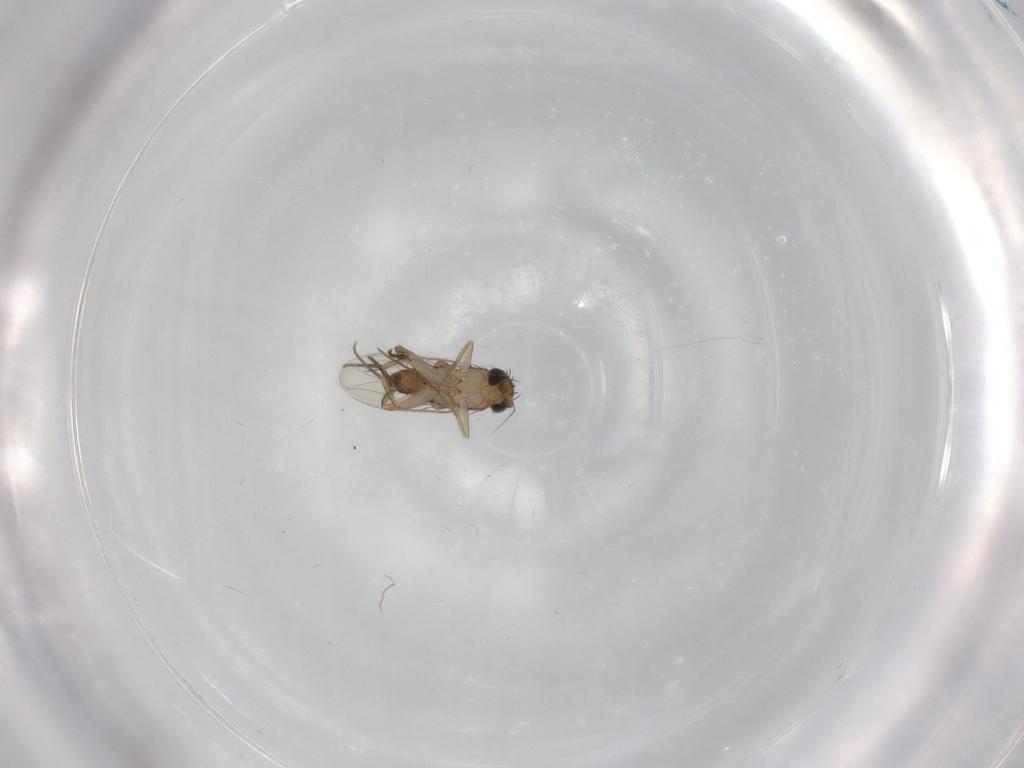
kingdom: Animalia
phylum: Arthropoda
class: Insecta
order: Diptera
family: Phoridae
